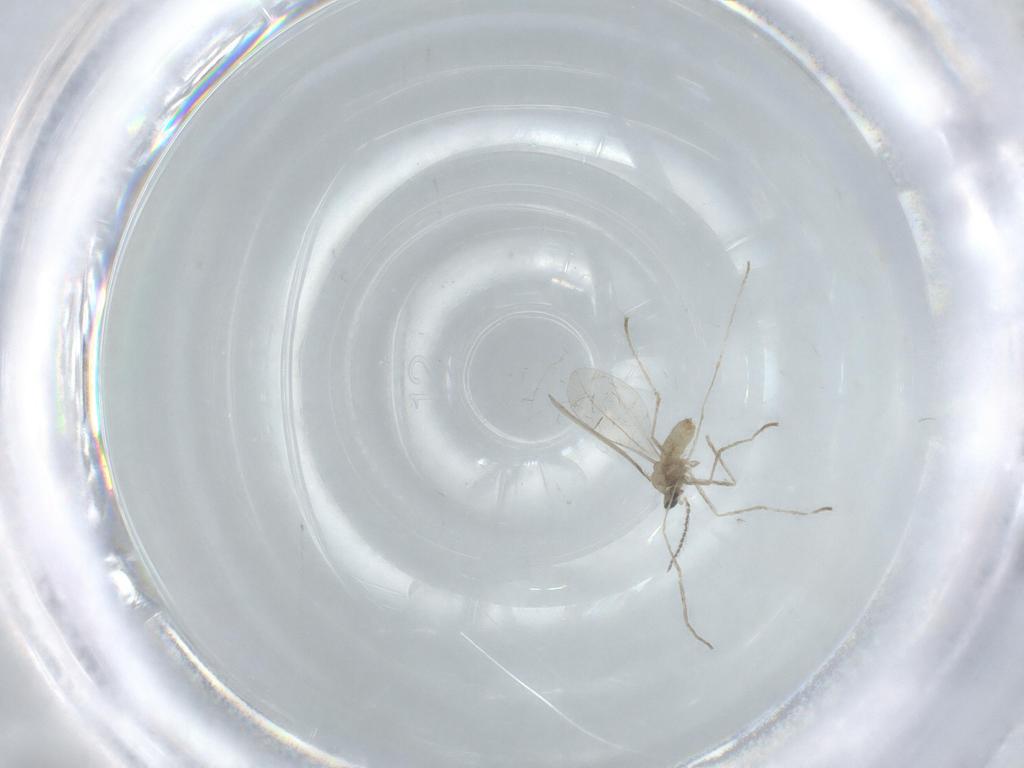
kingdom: Animalia
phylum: Arthropoda
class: Insecta
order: Diptera
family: Cecidomyiidae
